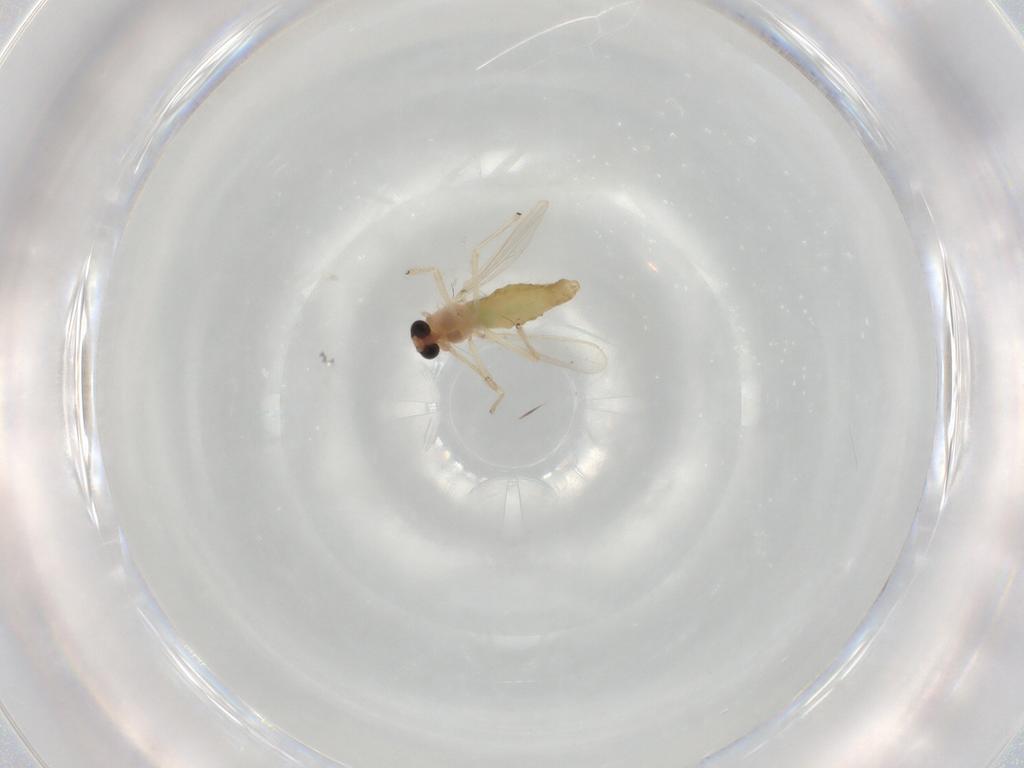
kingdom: Animalia
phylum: Arthropoda
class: Insecta
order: Diptera
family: Chironomidae
